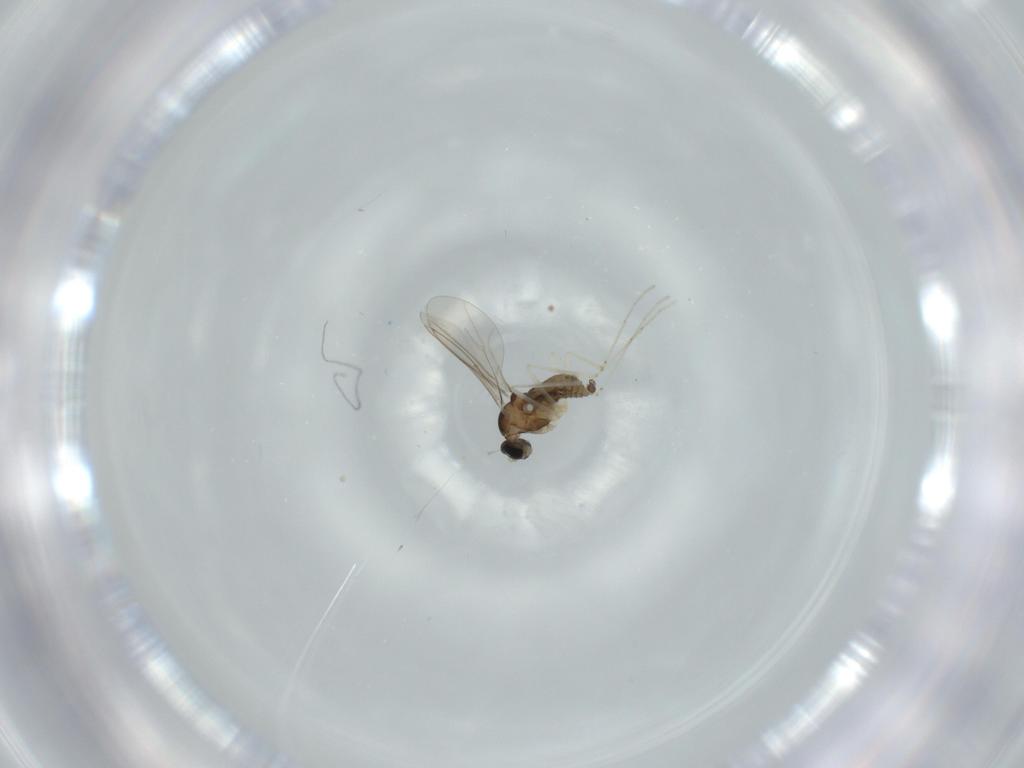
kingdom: Animalia
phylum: Arthropoda
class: Insecta
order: Diptera
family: Cecidomyiidae
